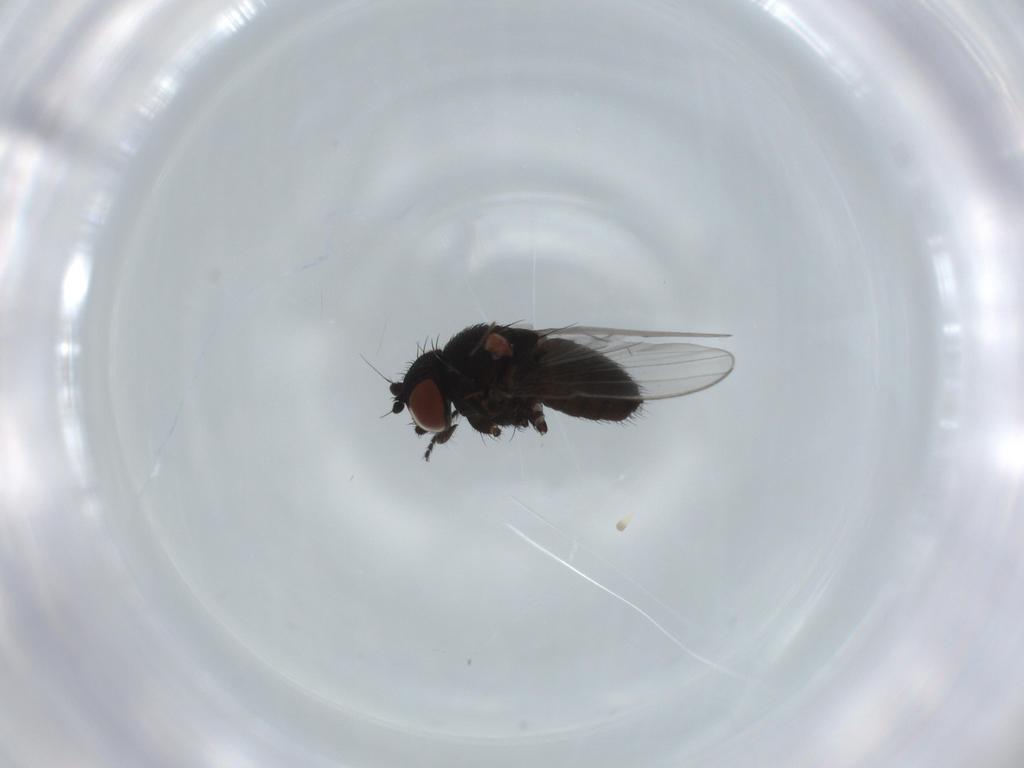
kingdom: Animalia
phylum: Arthropoda
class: Insecta
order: Diptera
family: Milichiidae
